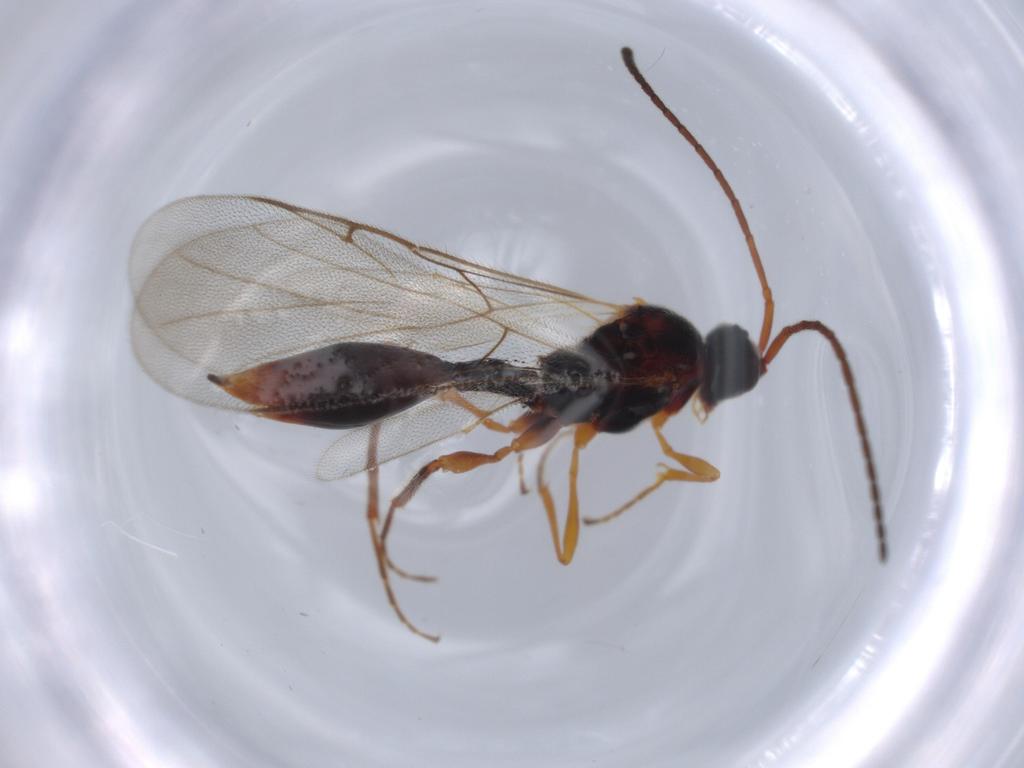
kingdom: Animalia
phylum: Arthropoda
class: Insecta
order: Hymenoptera
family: Diapriidae
